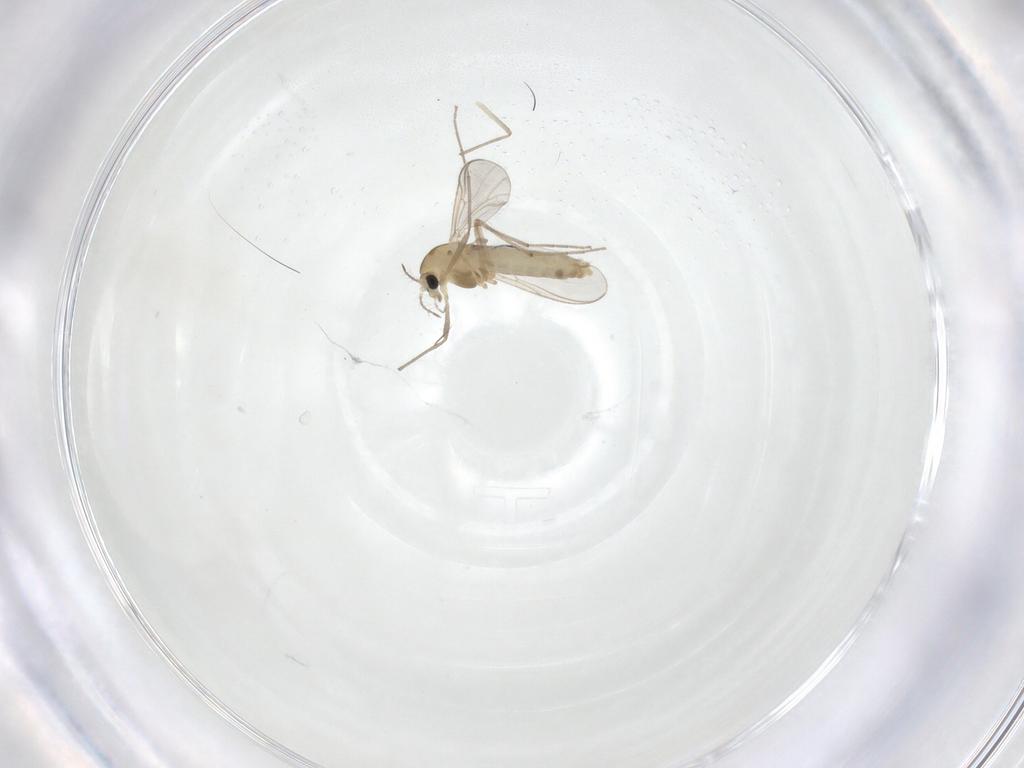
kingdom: Animalia
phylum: Arthropoda
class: Insecta
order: Diptera
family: Chironomidae
